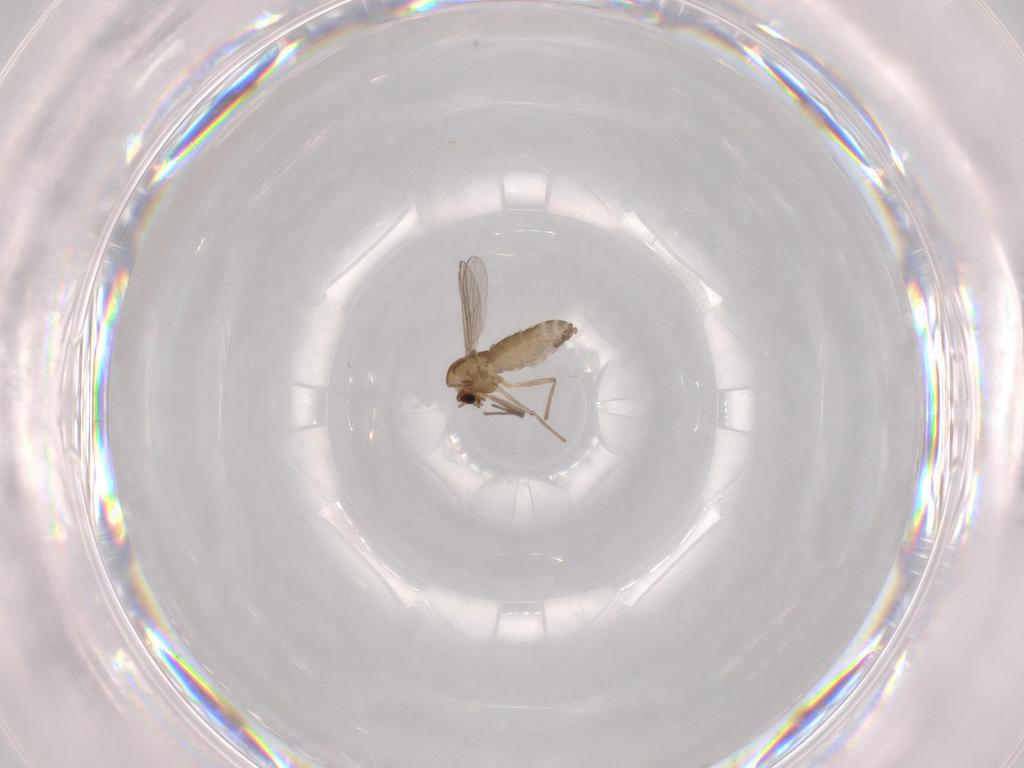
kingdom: Animalia
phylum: Arthropoda
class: Insecta
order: Diptera
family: Chironomidae
